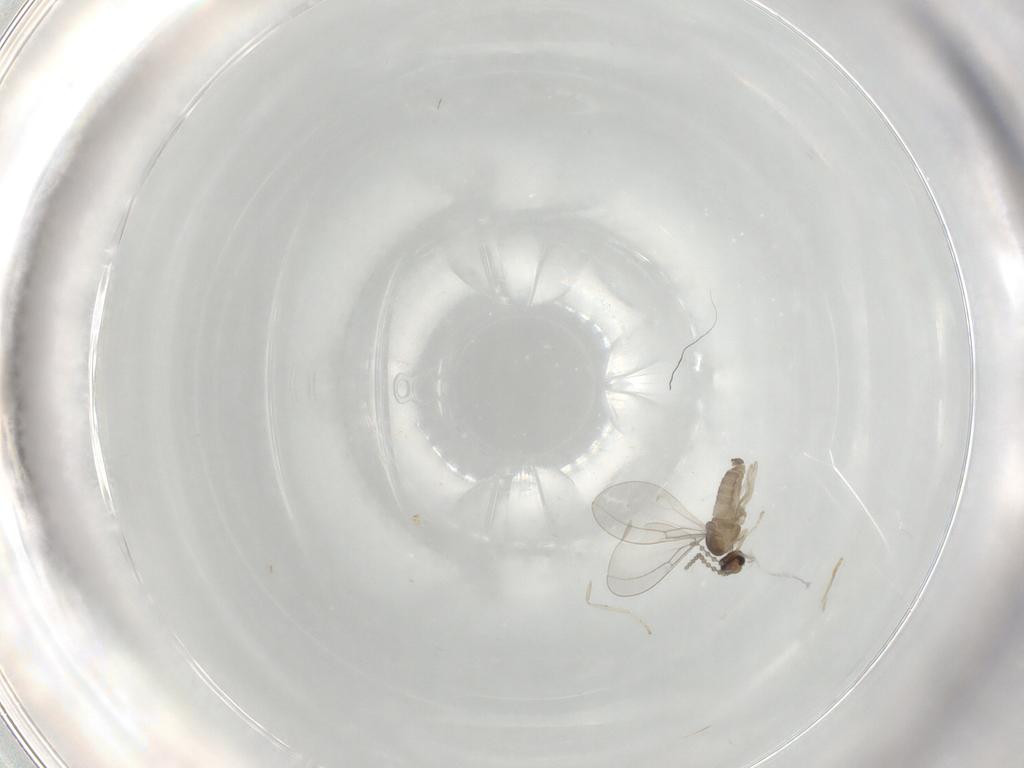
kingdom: Animalia
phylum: Arthropoda
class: Insecta
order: Diptera
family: Cecidomyiidae
